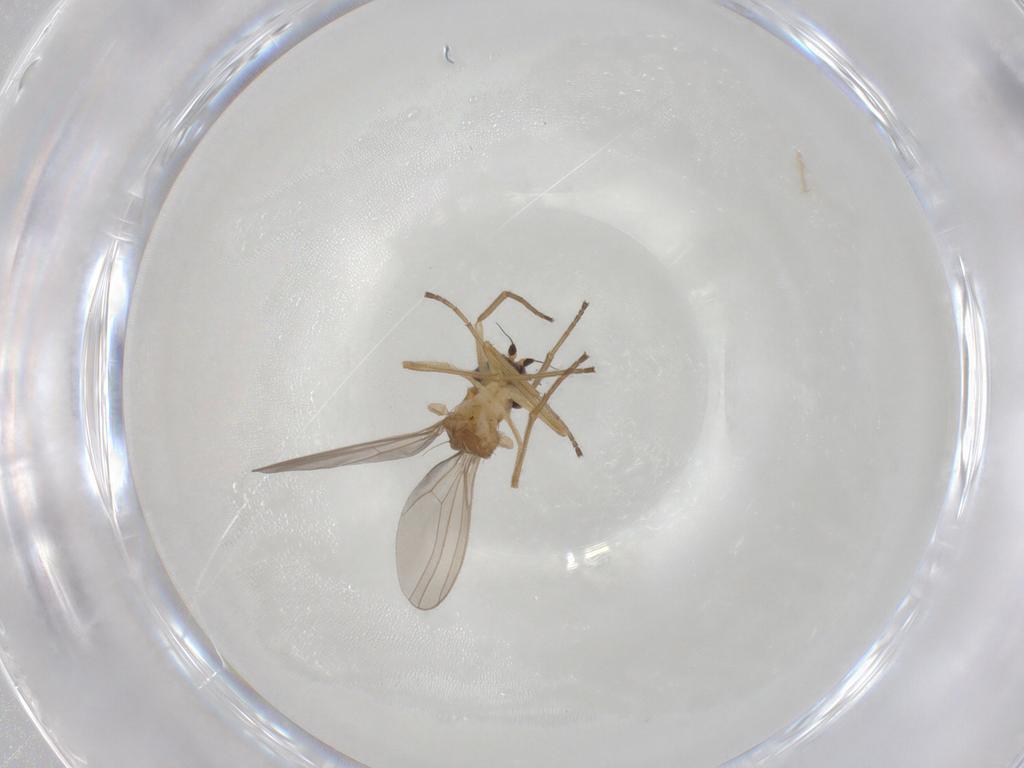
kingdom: Animalia
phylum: Arthropoda
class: Insecta
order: Diptera
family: Dolichopodidae
